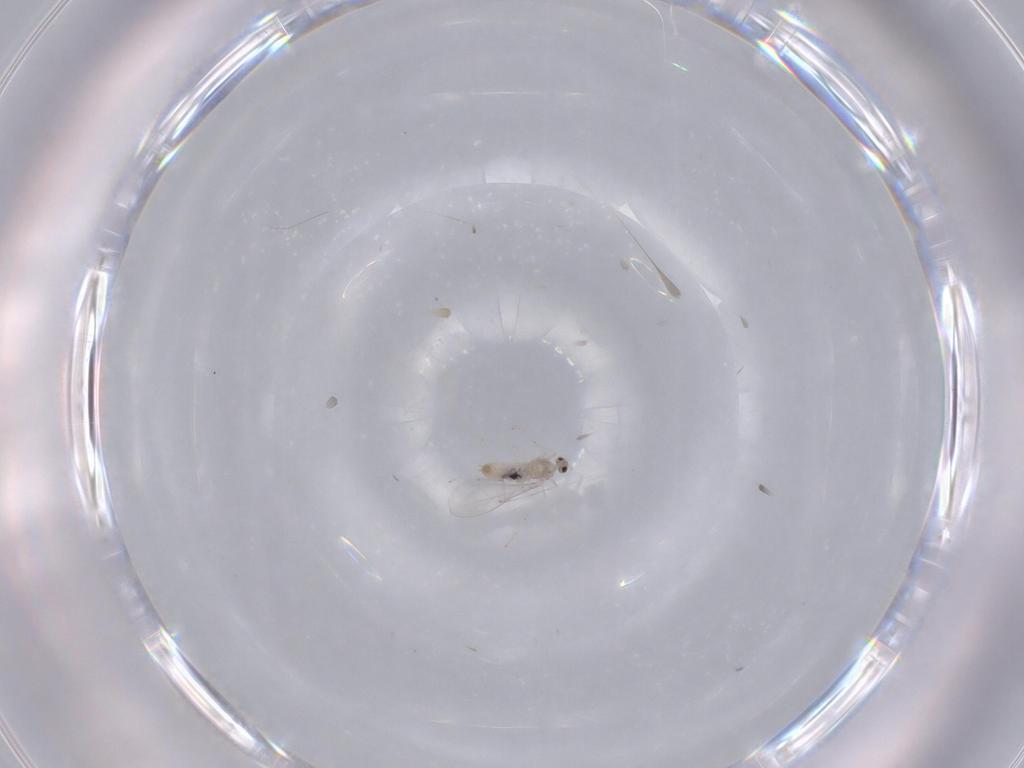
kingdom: Animalia
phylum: Arthropoda
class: Insecta
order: Diptera
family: Cecidomyiidae
